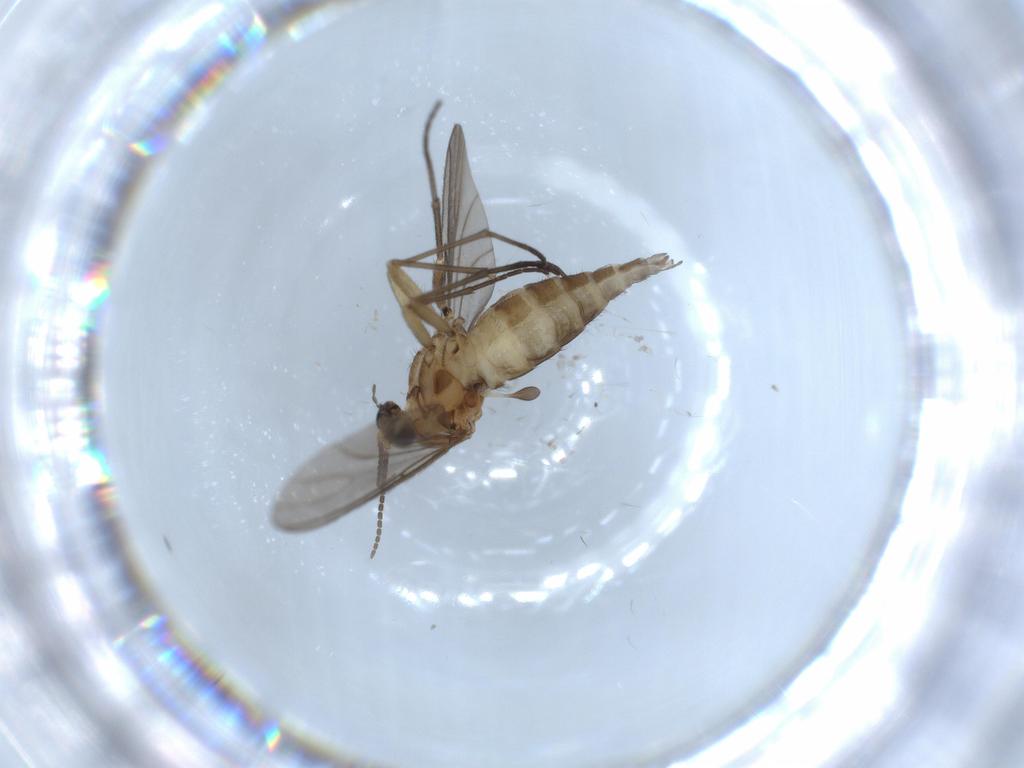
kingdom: Animalia
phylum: Arthropoda
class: Insecta
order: Diptera
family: Sciaridae
